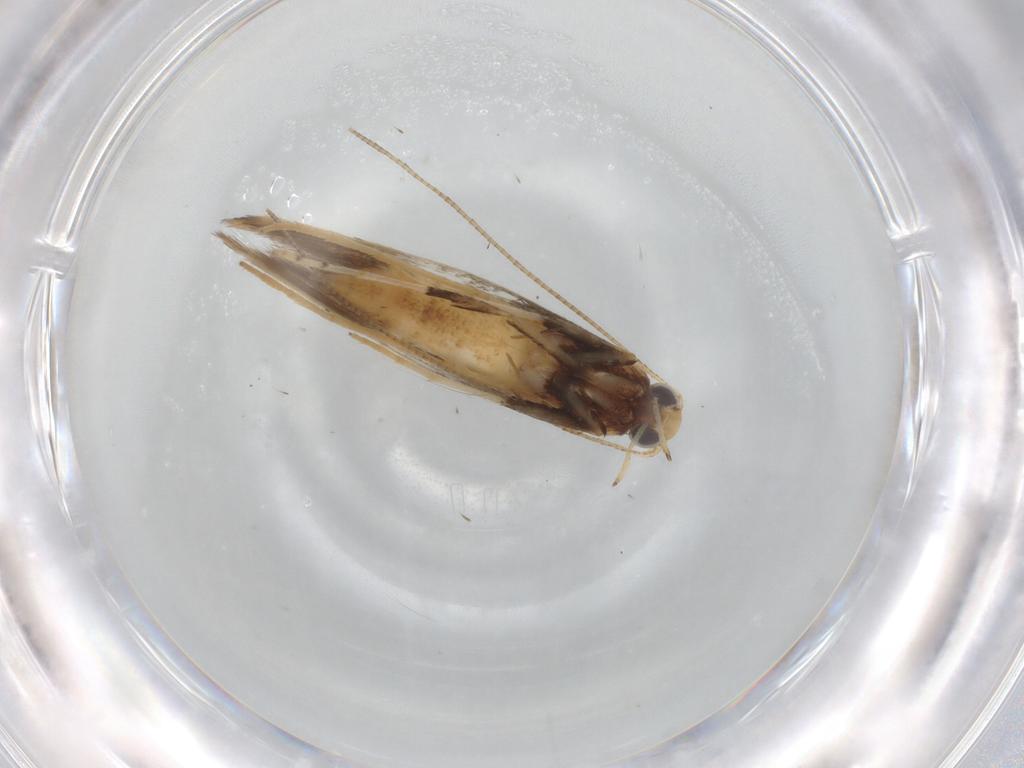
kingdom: Animalia
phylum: Arthropoda
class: Insecta
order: Lepidoptera
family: Gracillariidae
